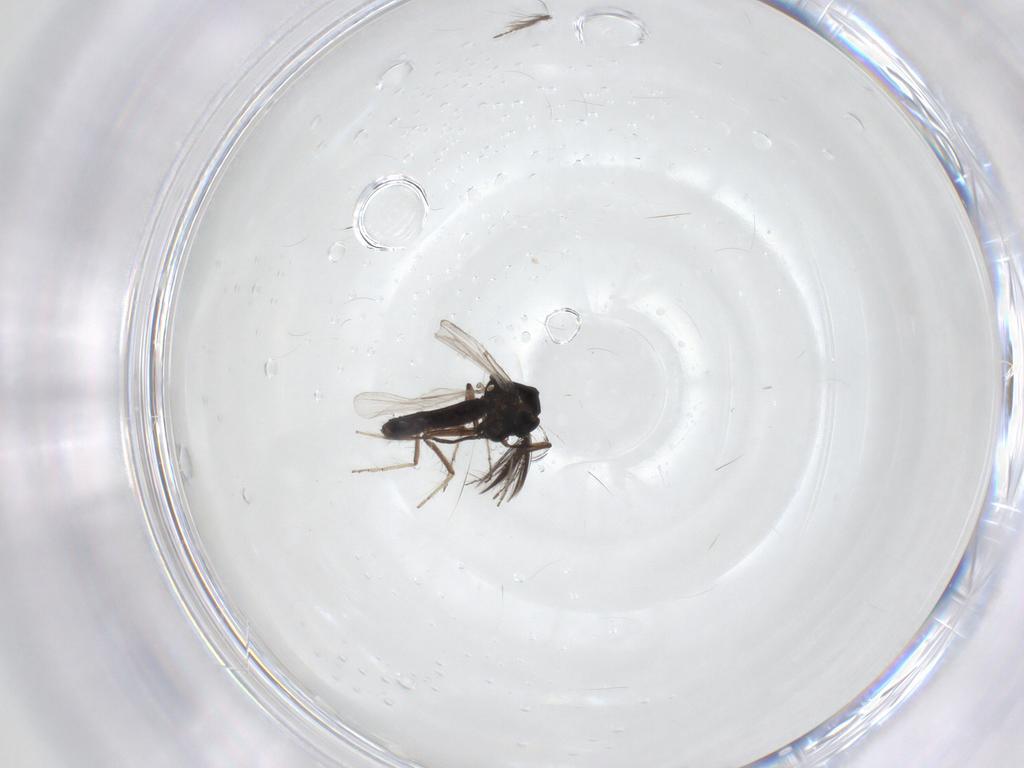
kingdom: Animalia
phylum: Arthropoda
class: Insecta
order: Diptera
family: Ceratopogonidae
